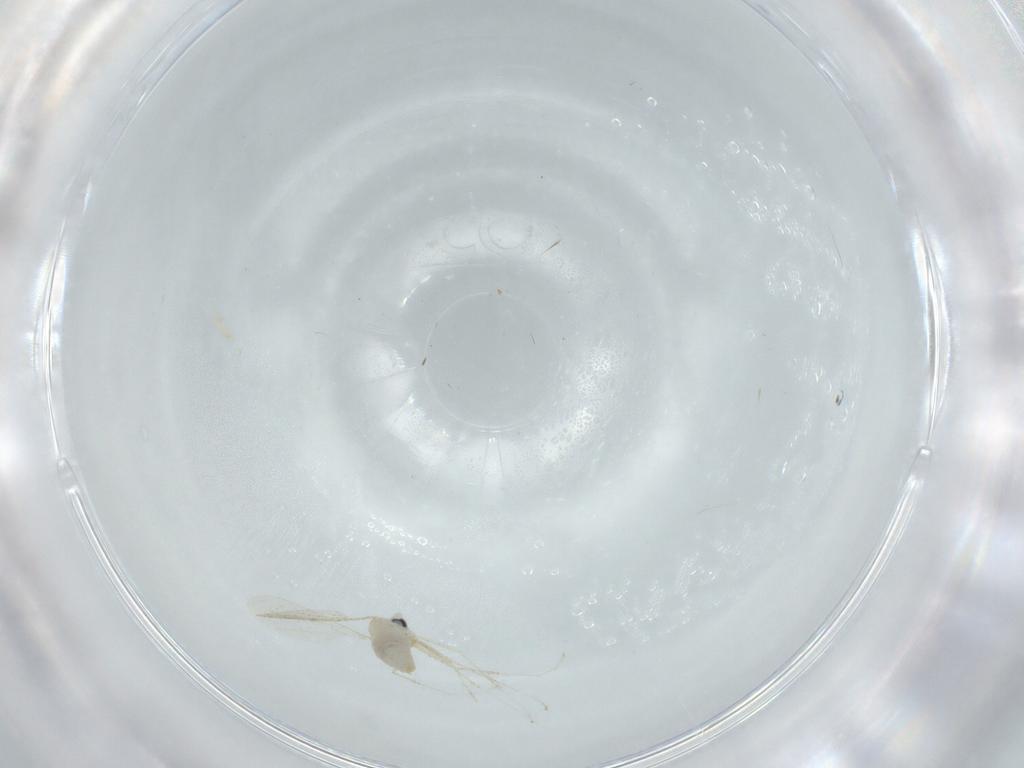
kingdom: Animalia
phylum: Arthropoda
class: Insecta
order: Diptera
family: Cecidomyiidae
